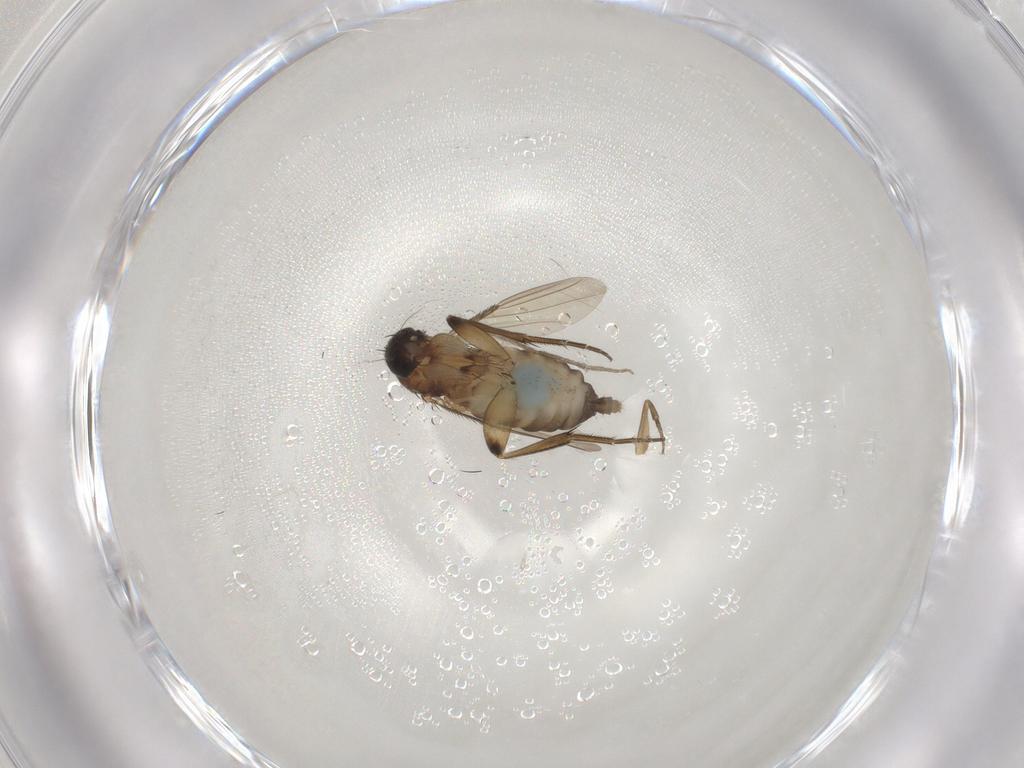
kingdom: Animalia
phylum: Arthropoda
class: Insecta
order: Diptera
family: Phoridae
